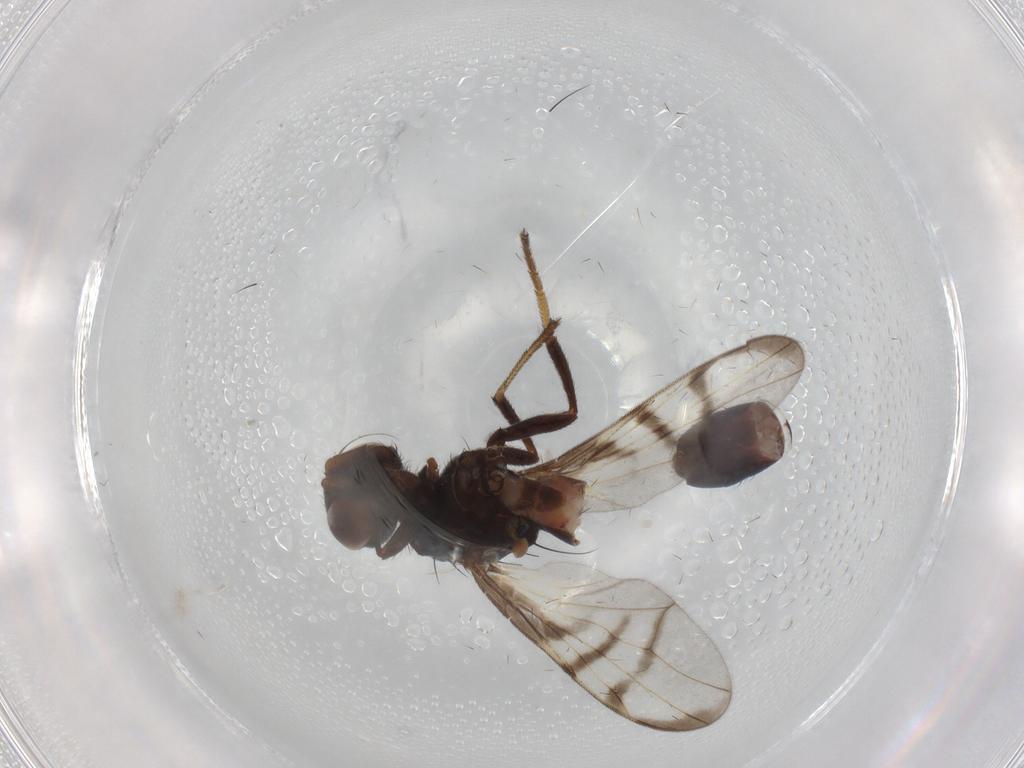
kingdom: Animalia
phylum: Arthropoda
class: Insecta
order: Diptera
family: Platystomatidae
